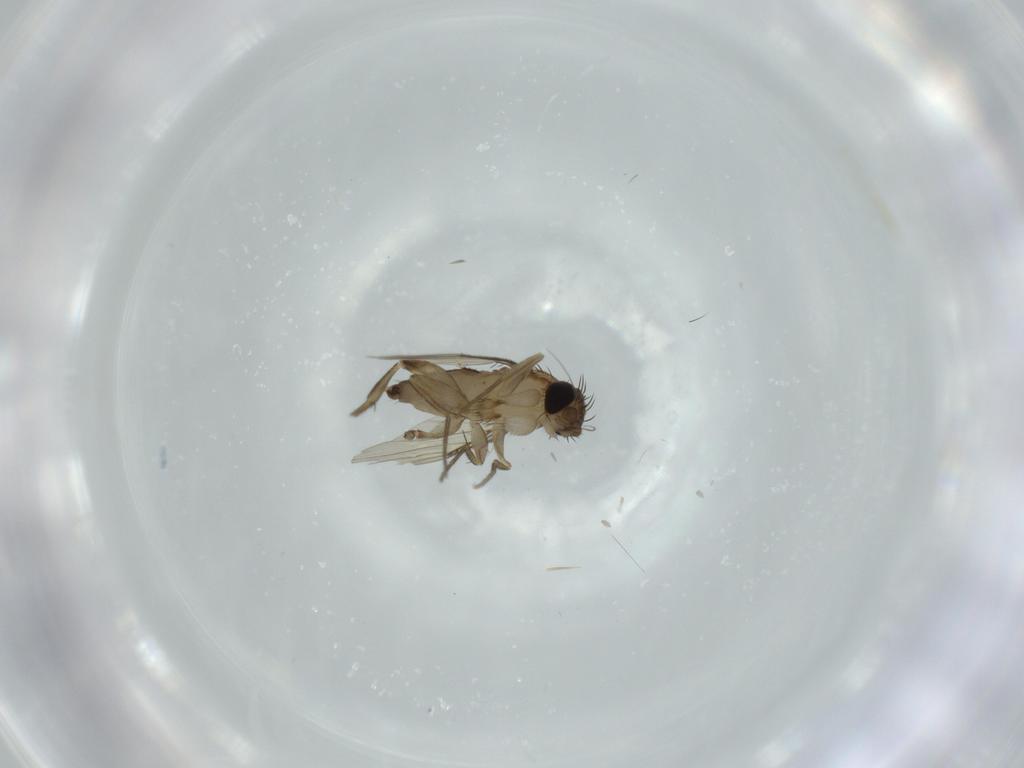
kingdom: Animalia
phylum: Arthropoda
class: Insecta
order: Diptera
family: Phoridae
